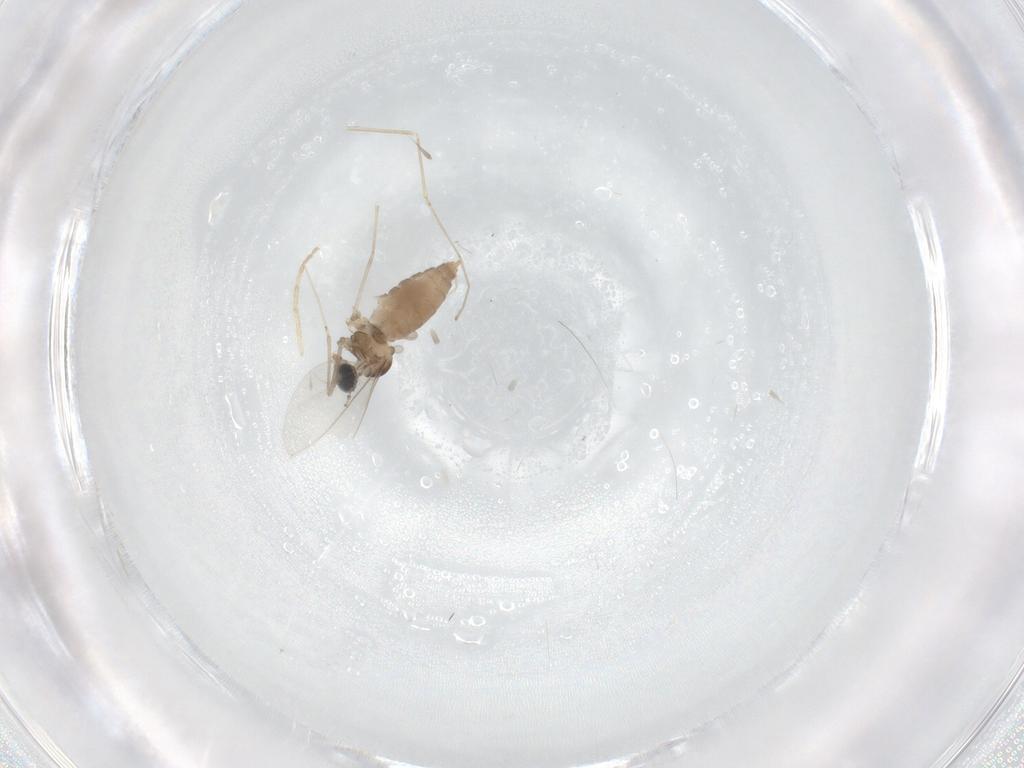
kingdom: Animalia
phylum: Arthropoda
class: Insecta
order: Diptera
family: Cecidomyiidae
